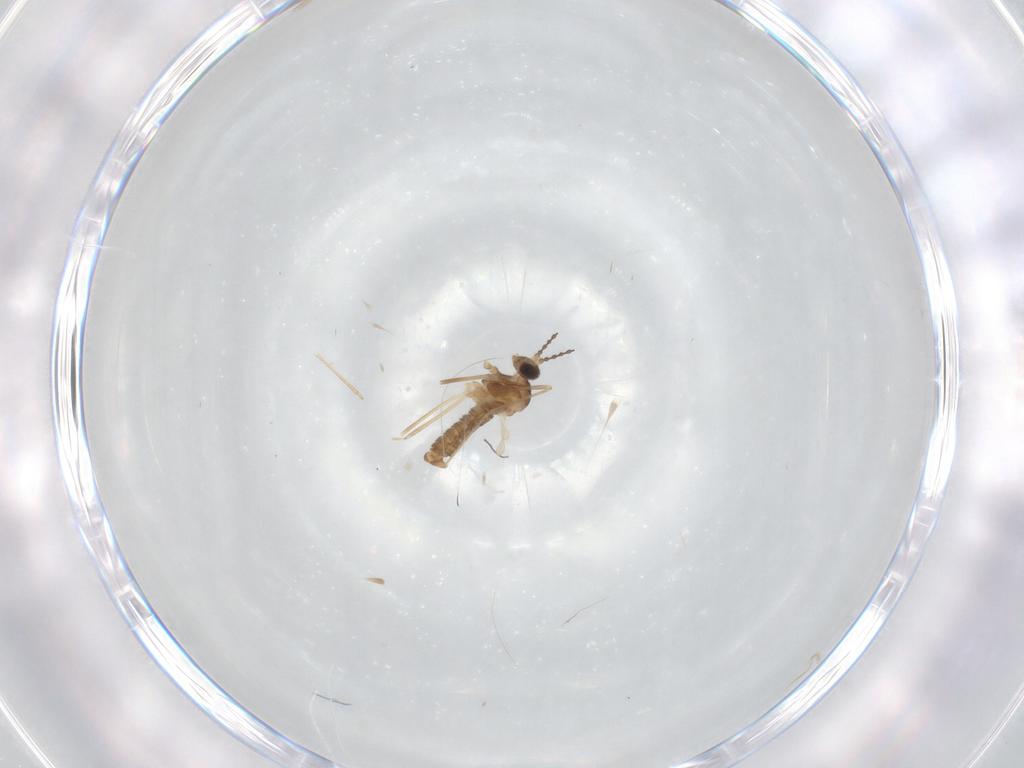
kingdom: Animalia
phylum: Arthropoda
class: Insecta
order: Diptera
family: Cecidomyiidae
